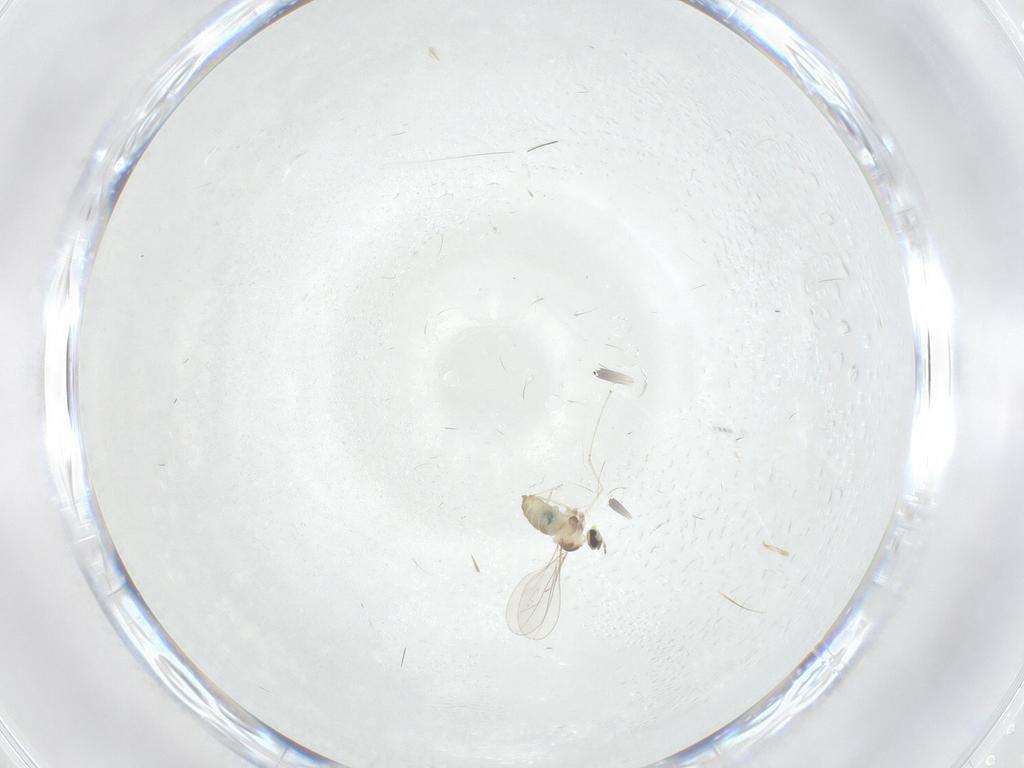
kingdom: Animalia
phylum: Arthropoda
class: Insecta
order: Diptera
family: Cecidomyiidae
